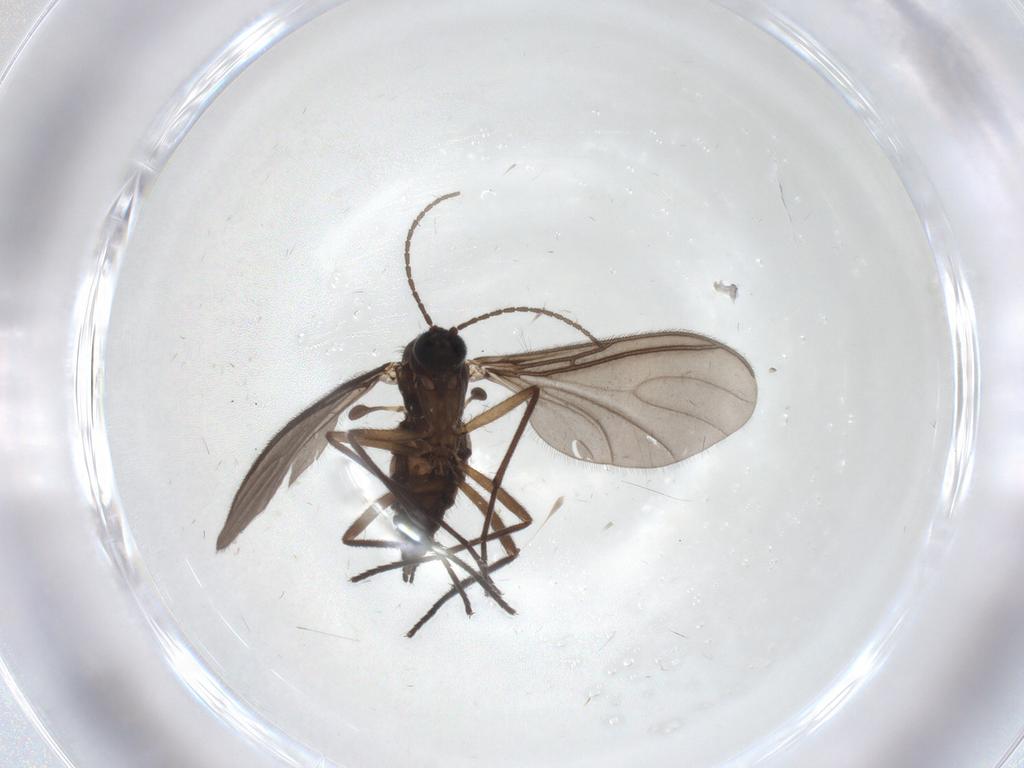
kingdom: Animalia
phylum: Arthropoda
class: Insecta
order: Diptera
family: Sciaridae
